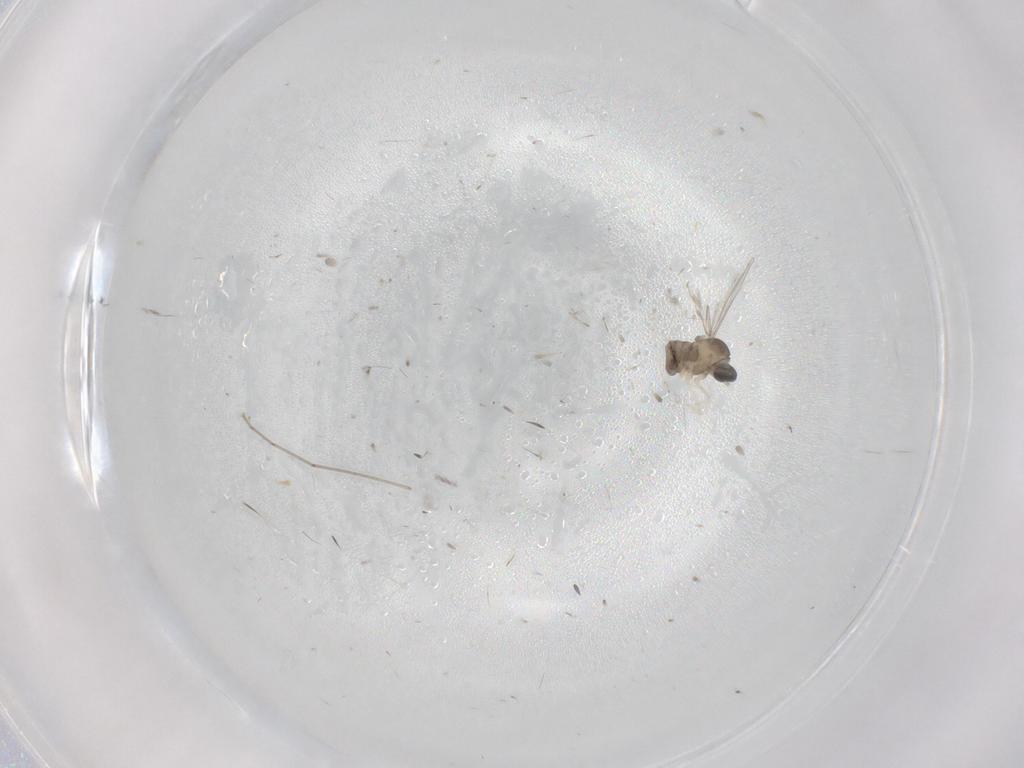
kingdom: Animalia
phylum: Arthropoda
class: Insecta
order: Diptera
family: Cecidomyiidae
